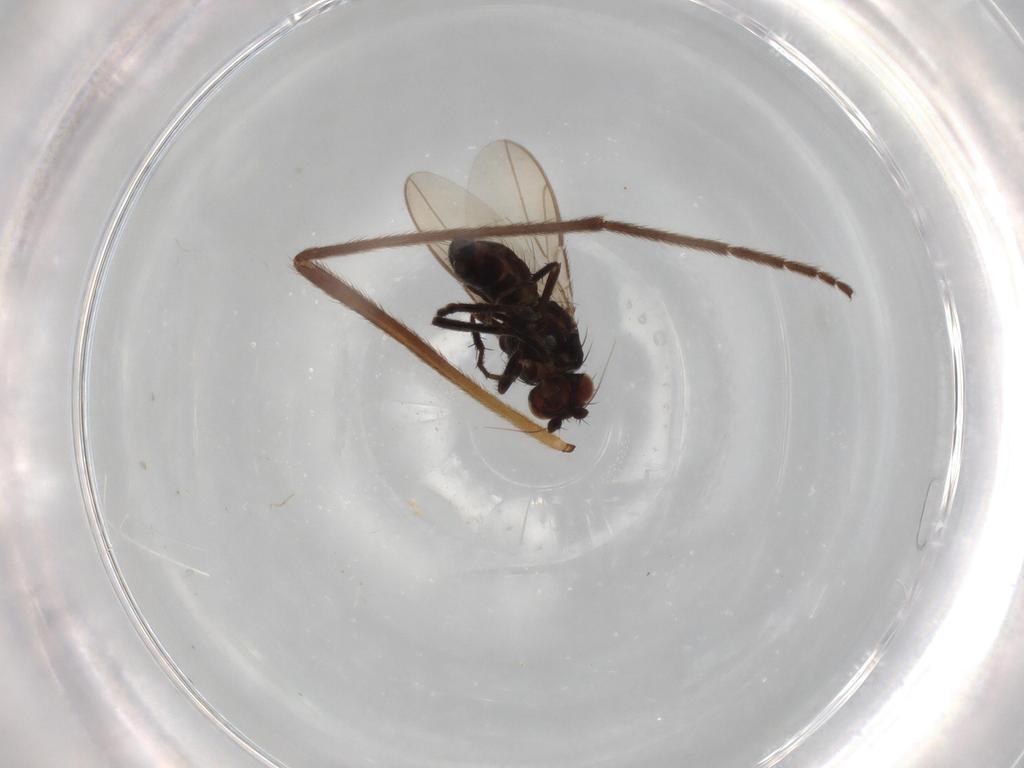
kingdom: Animalia
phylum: Arthropoda
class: Insecta
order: Diptera
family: Sphaeroceridae
